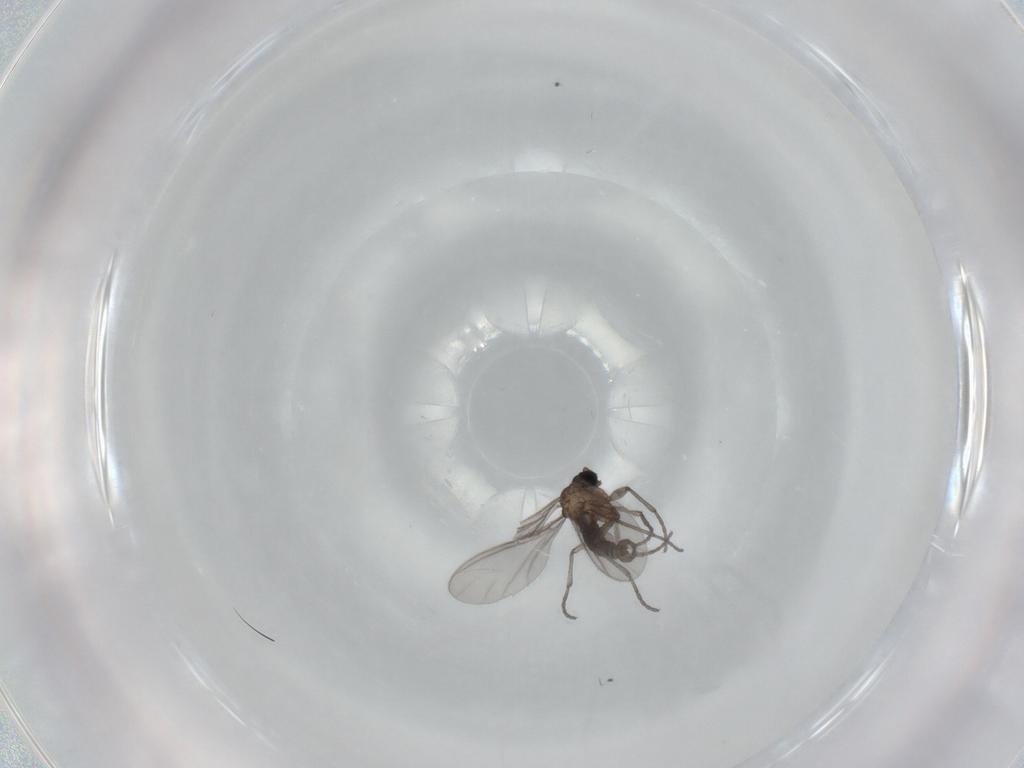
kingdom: Animalia
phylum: Arthropoda
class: Insecta
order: Diptera
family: Sciaridae
